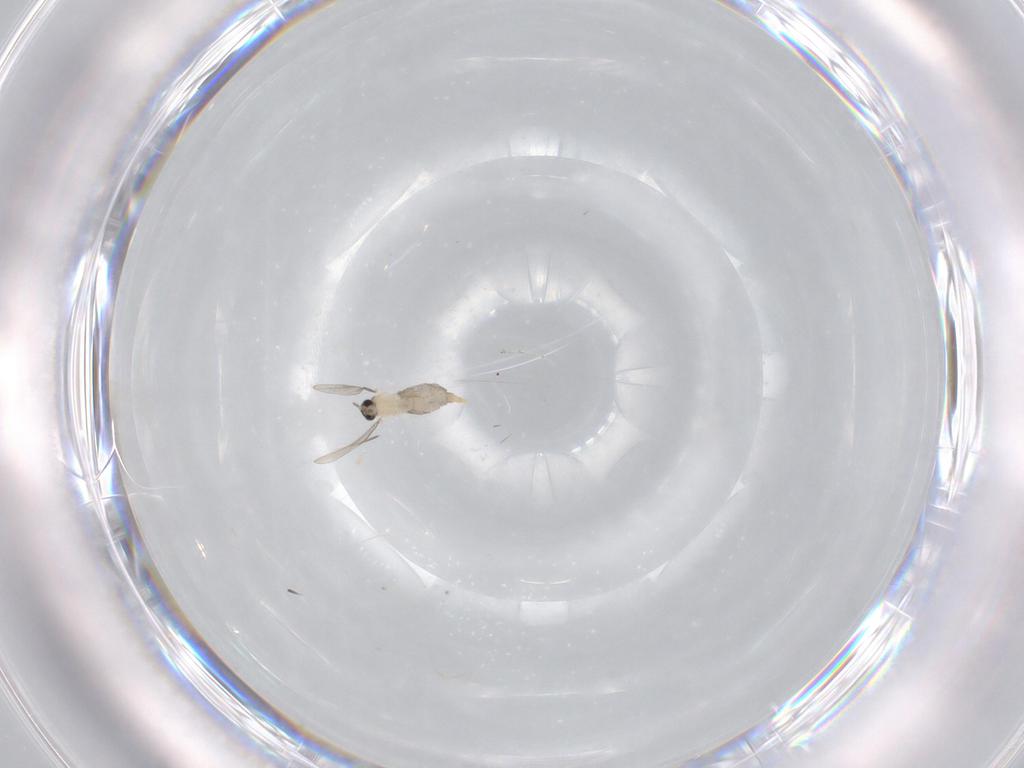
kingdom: Animalia
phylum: Arthropoda
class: Insecta
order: Diptera
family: Cecidomyiidae
